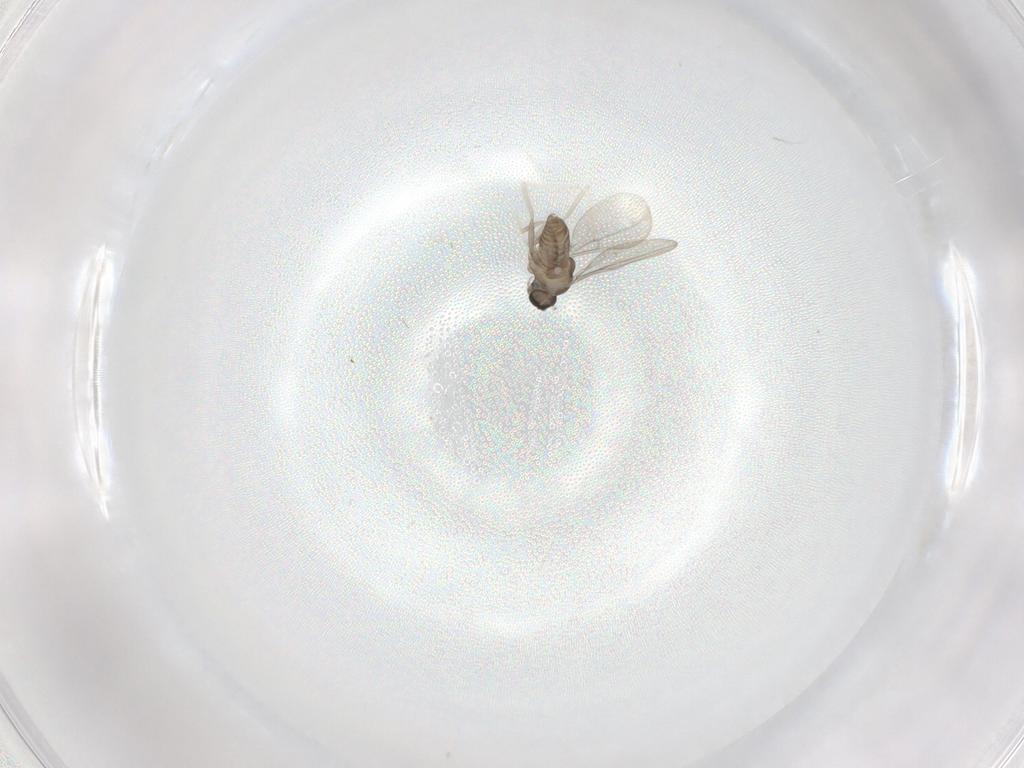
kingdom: Animalia
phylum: Arthropoda
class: Insecta
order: Diptera
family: Cecidomyiidae
